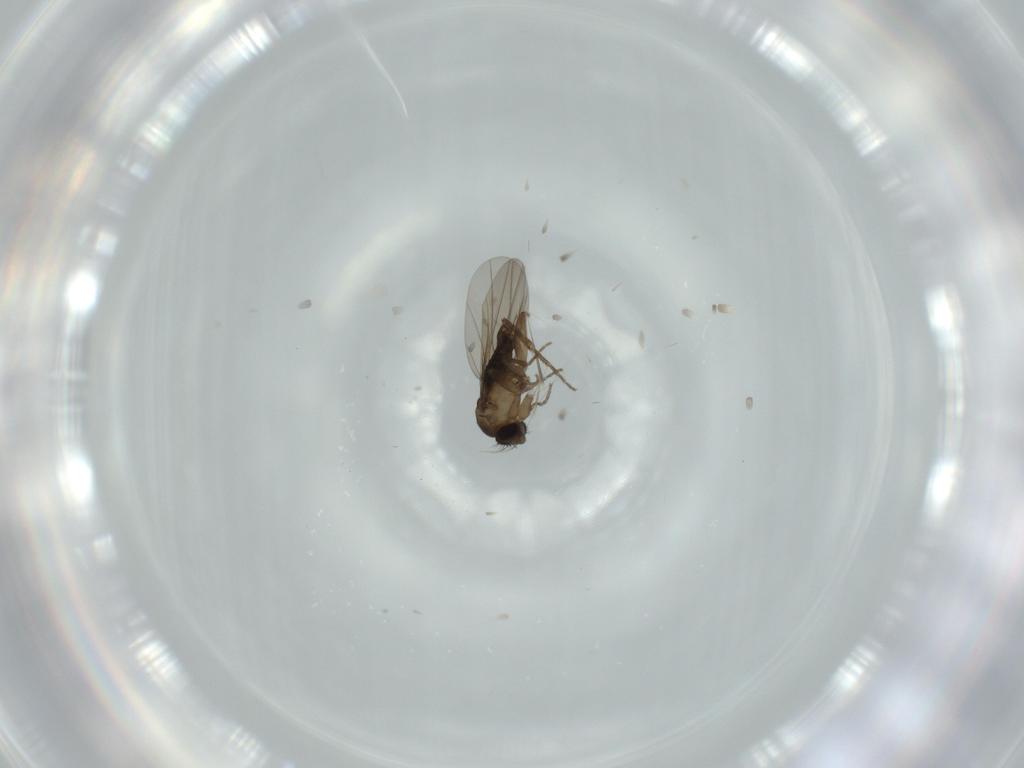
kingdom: Animalia
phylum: Arthropoda
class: Insecta
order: Diptera
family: Phoridae
